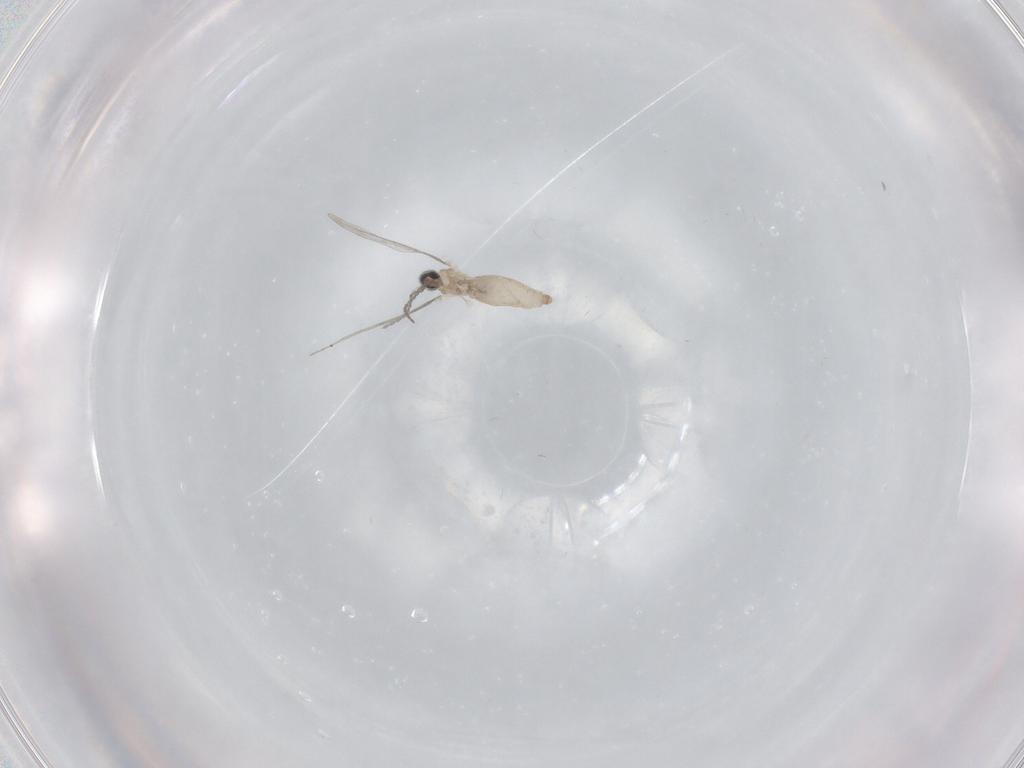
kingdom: Animalia
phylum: Arthropoda
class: Insecta
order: Diptera
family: Cecidomyiidae
